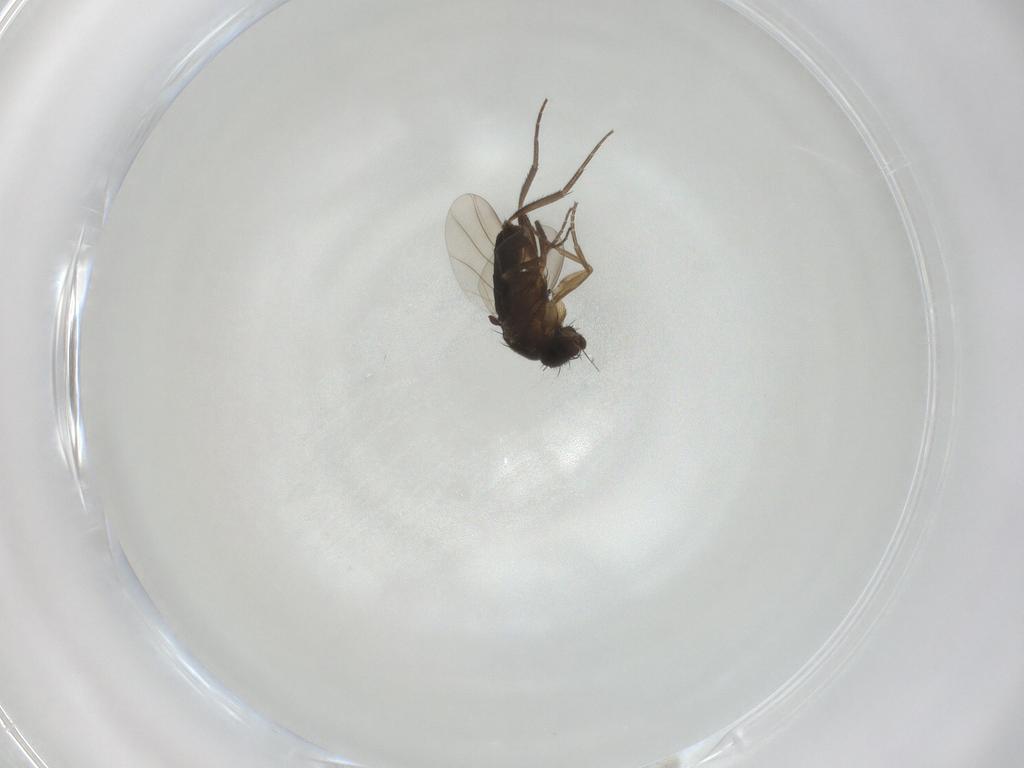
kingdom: Animalia
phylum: Arthropoda
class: Insecta
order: Diptera
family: Phoridae
